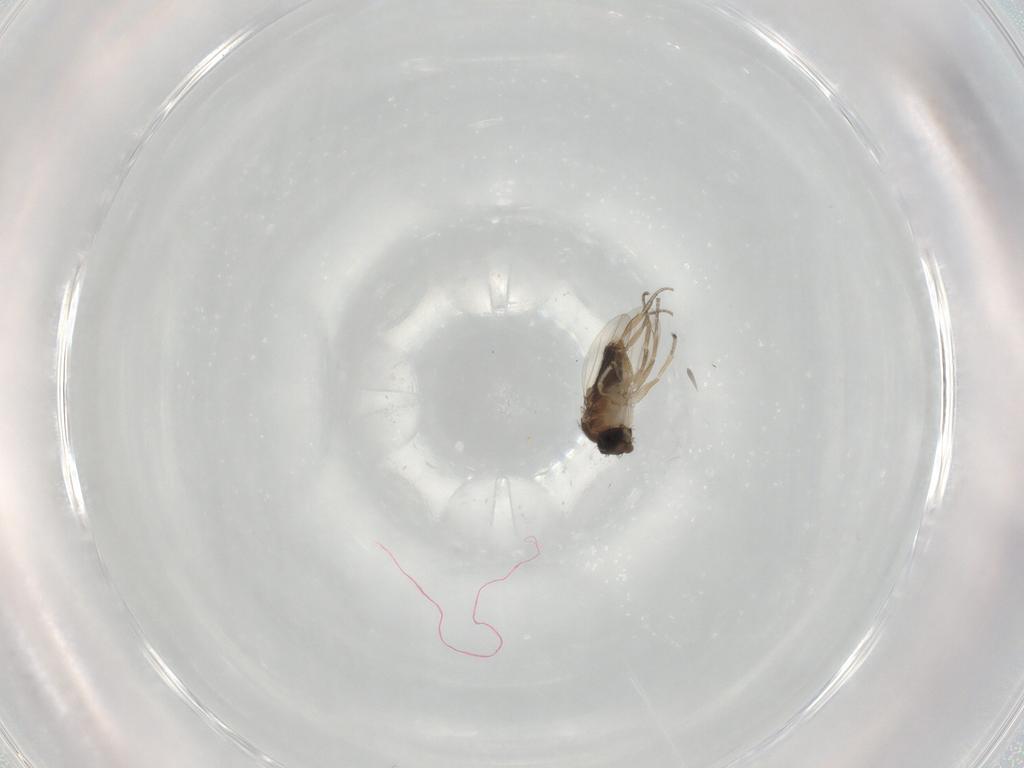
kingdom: Animalia
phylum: Arthropoda
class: Insecta
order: Diptera
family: Phoridae
